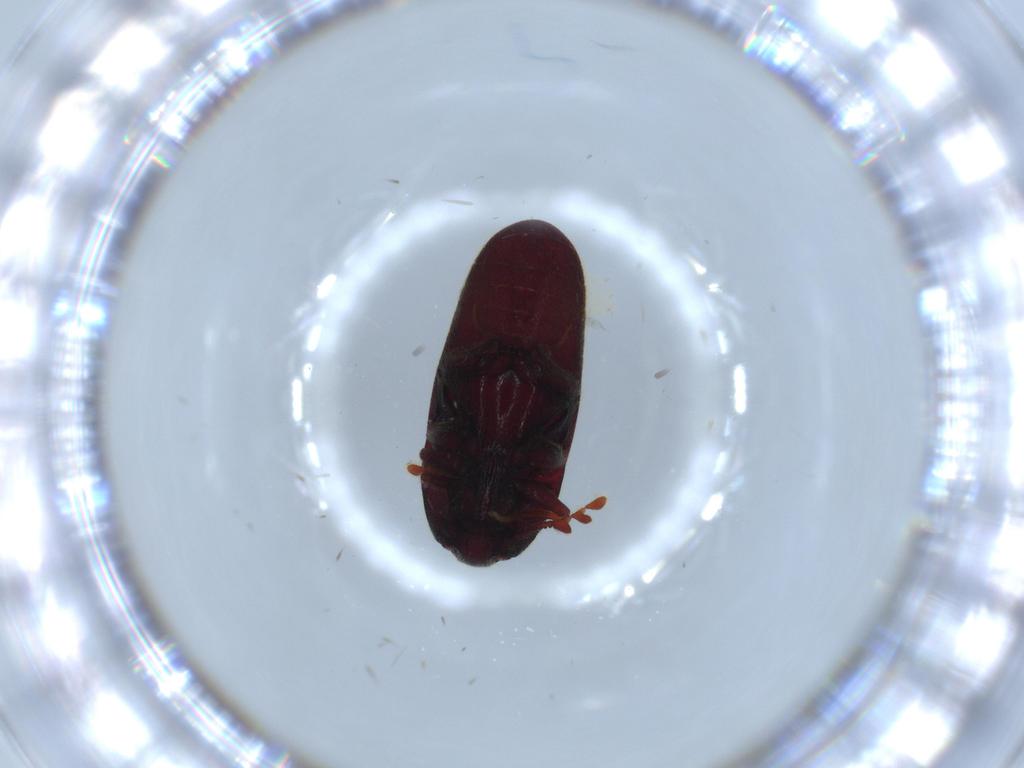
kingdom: Animalia
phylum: Arthropoda
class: Insecta
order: Coleoptera
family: Throscidae
